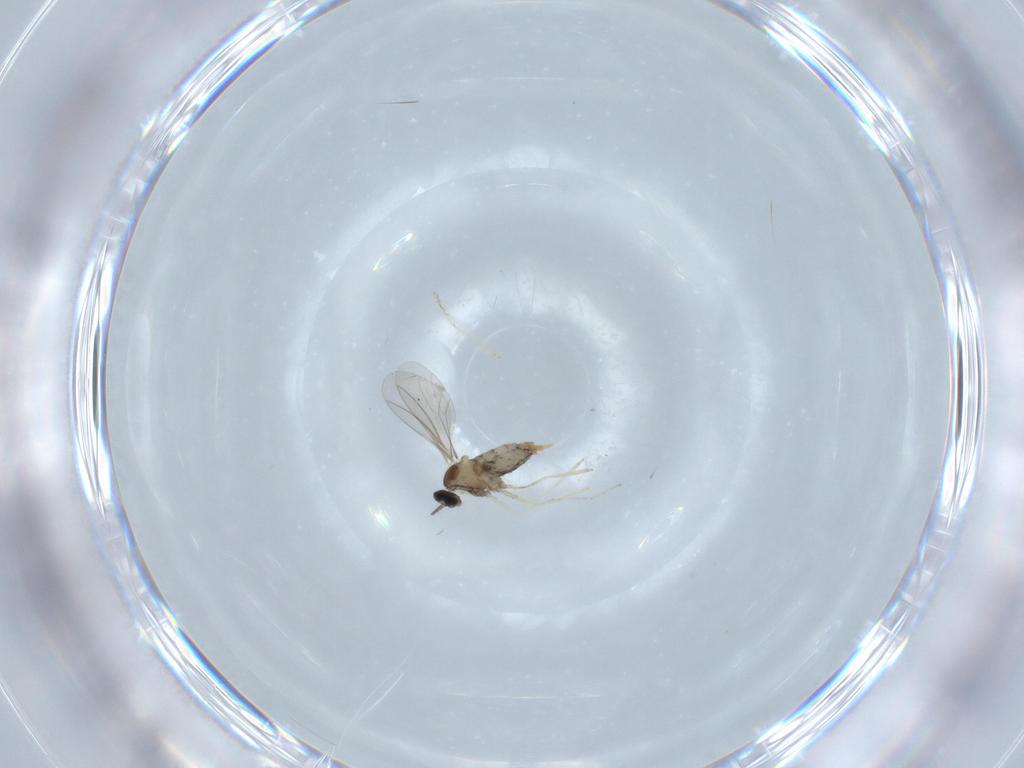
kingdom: Animalia
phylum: Arthropoda
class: Insecta
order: Diptera
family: Cecidomyiidae
